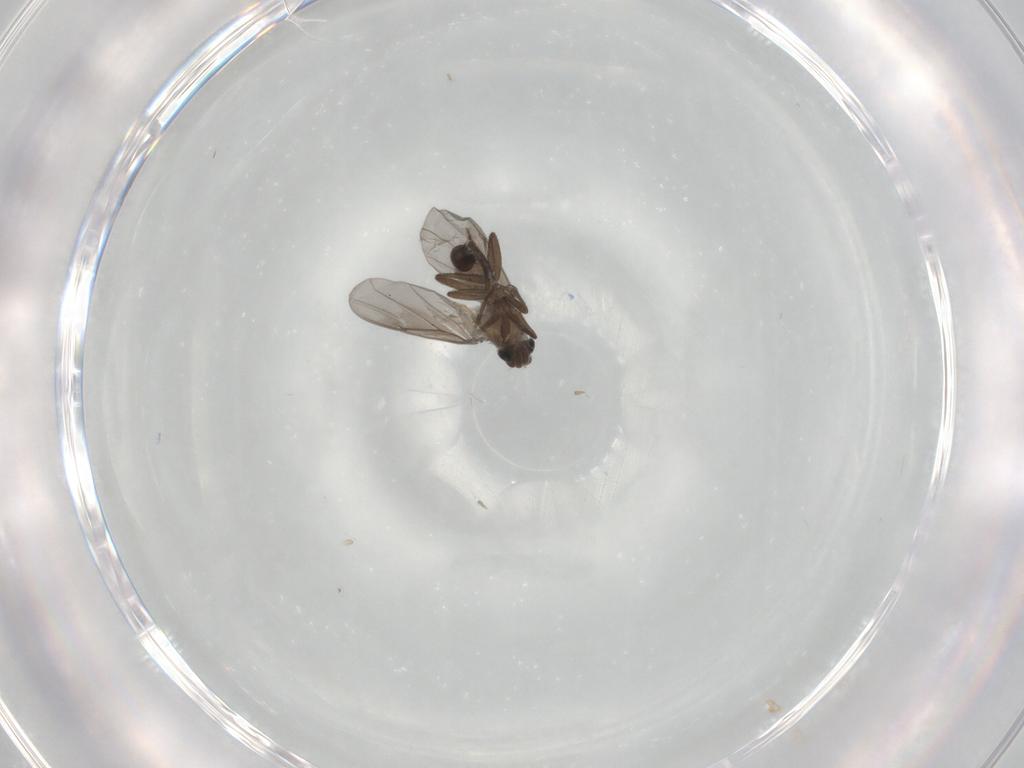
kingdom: Animalia
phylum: Arthropoda
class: Insecta
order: Diptera
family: Phoridae
